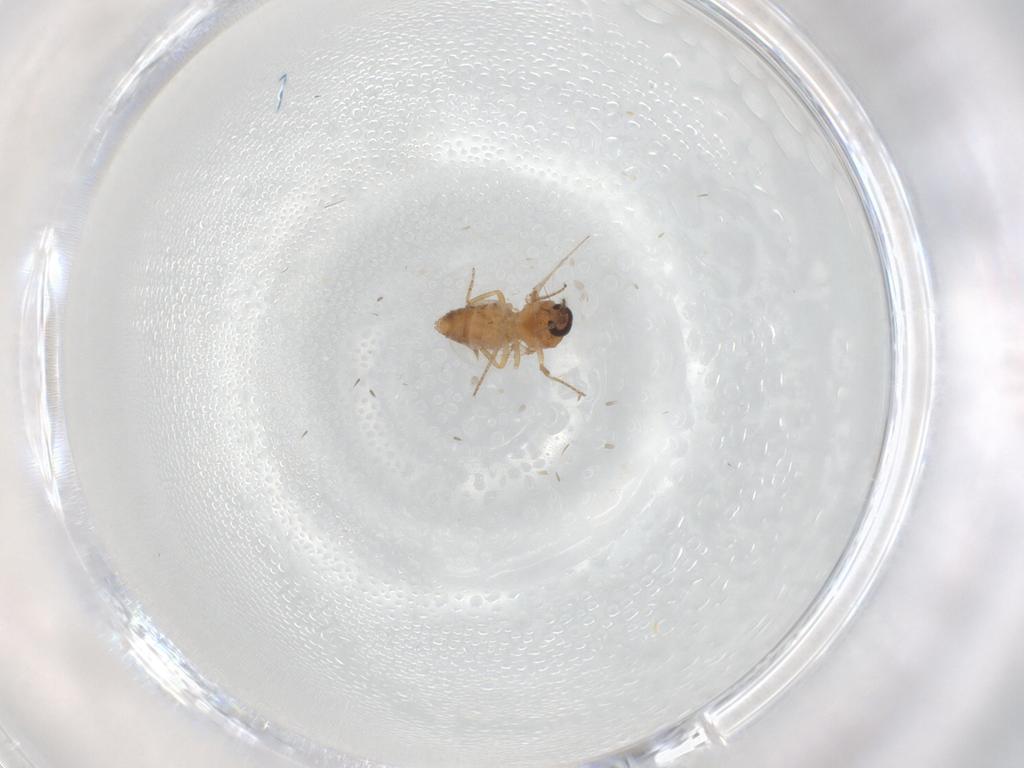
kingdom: Animalia
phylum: Arthropoda
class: Insecta
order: Diptera
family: Ceratopogonidae
